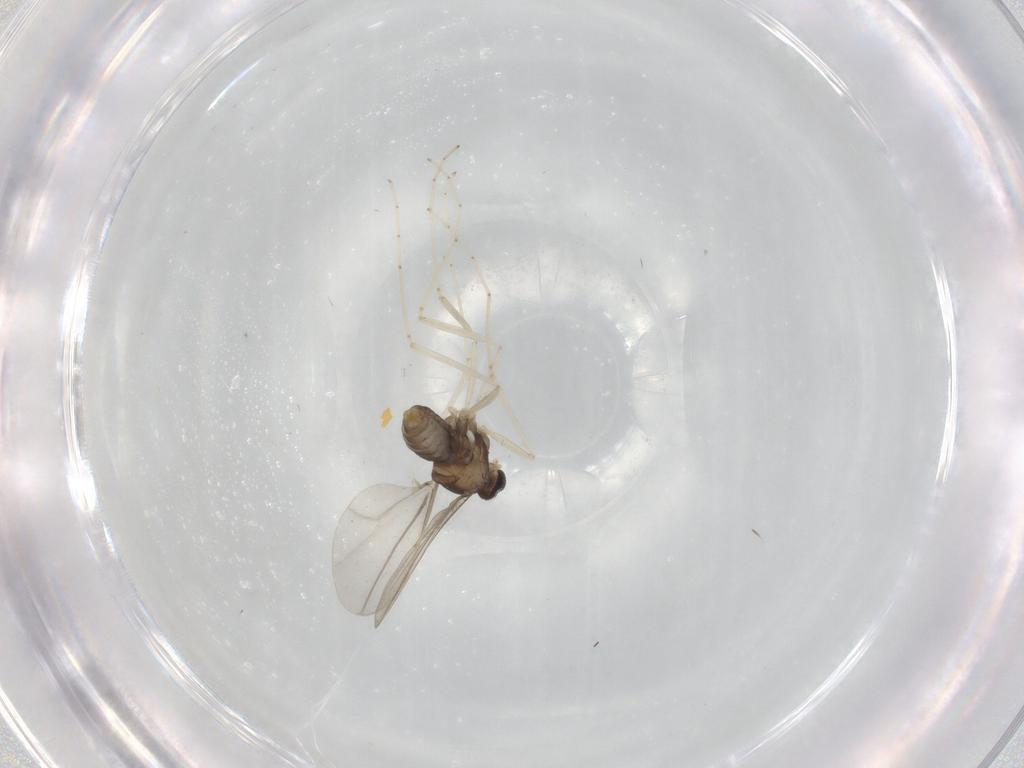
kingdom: Animalia
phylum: Arthropoda
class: Insecta
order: Diptera
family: Cecidomyiidae
